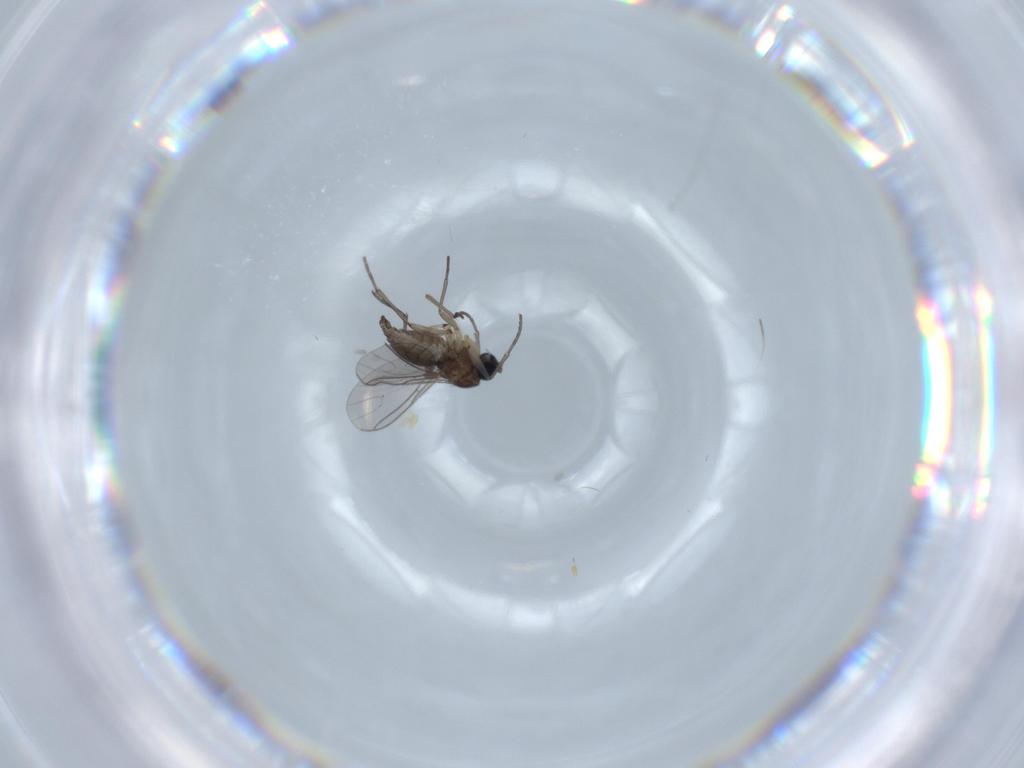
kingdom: Animalia
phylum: Arthropoda
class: Insecta
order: Diptera
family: Sciaridae
